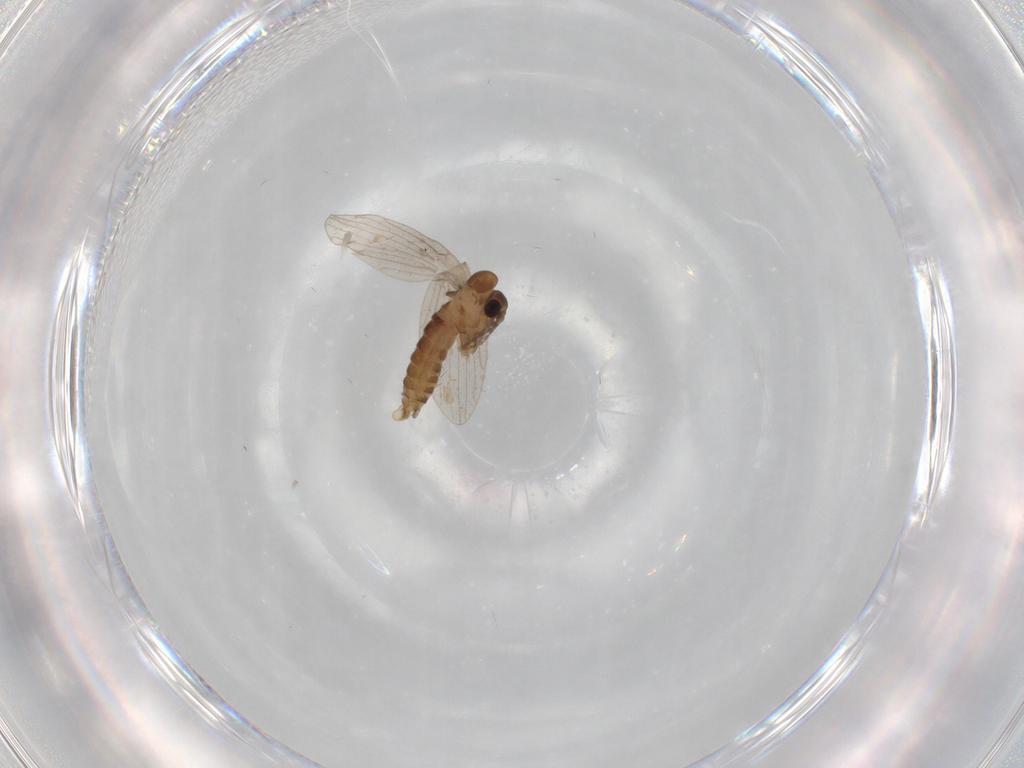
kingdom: Animalia
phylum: Arthropoda
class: Insecta
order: Diptera
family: Psychodidae
